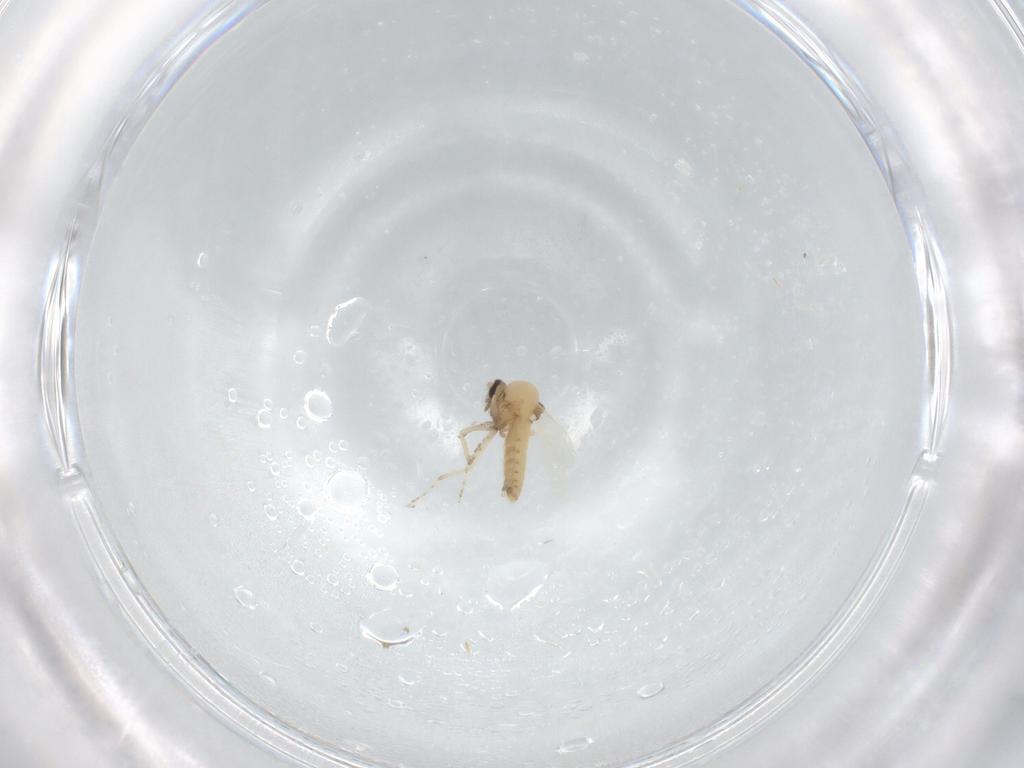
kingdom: Animalia
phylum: Arthropoda
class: Insecta
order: Diptera
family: Ceratopogonidae
